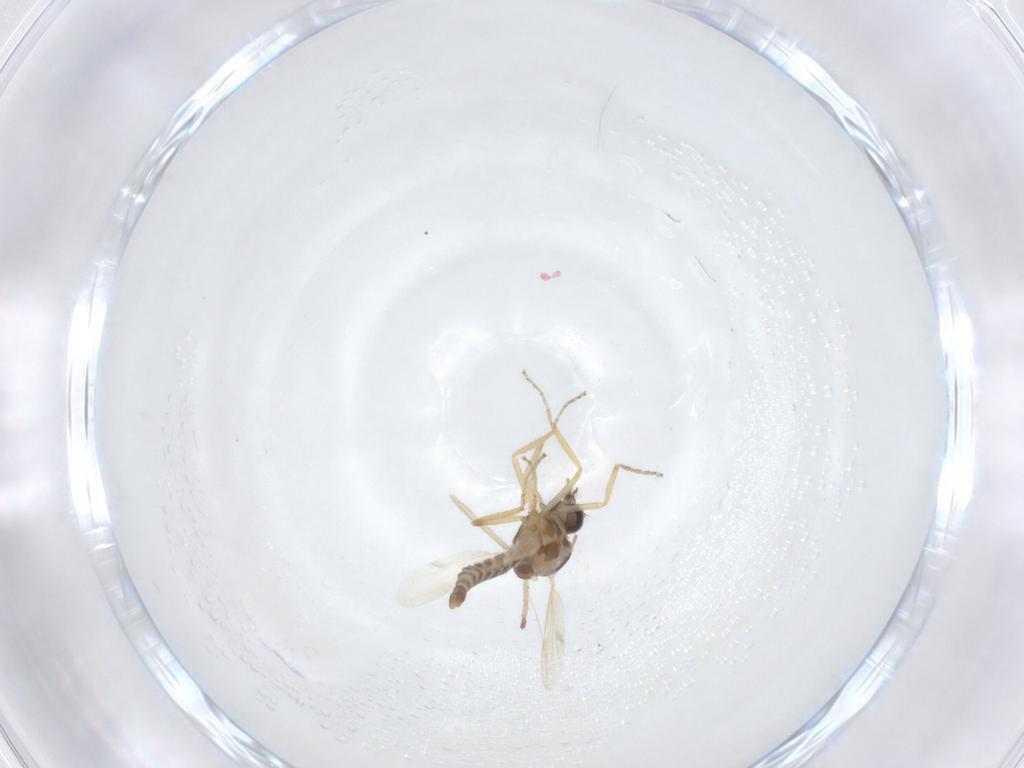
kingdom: Animalia
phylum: Arthropoda
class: Insecta
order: Diptera
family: Ceratopogonidae
